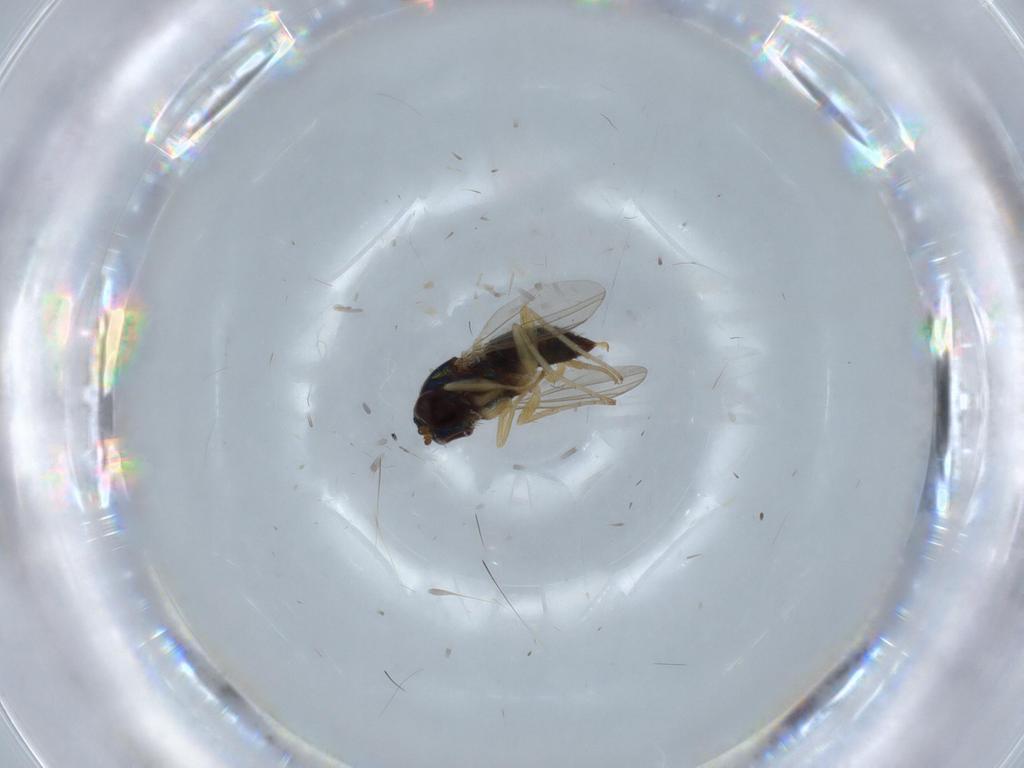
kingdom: Animalia
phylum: Arthropoda
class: Insecta
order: Diptera
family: Dolichopodidae
